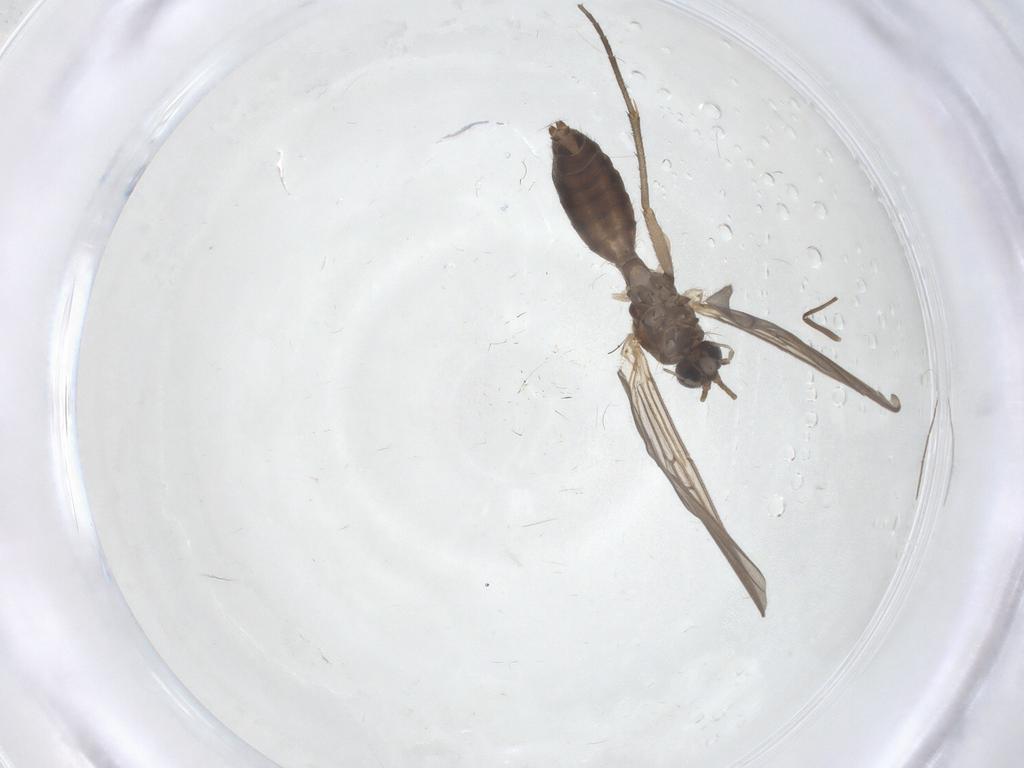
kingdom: Animalia
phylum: Arthropoda
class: Insecta
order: Diptera
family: Mycetophilidae
